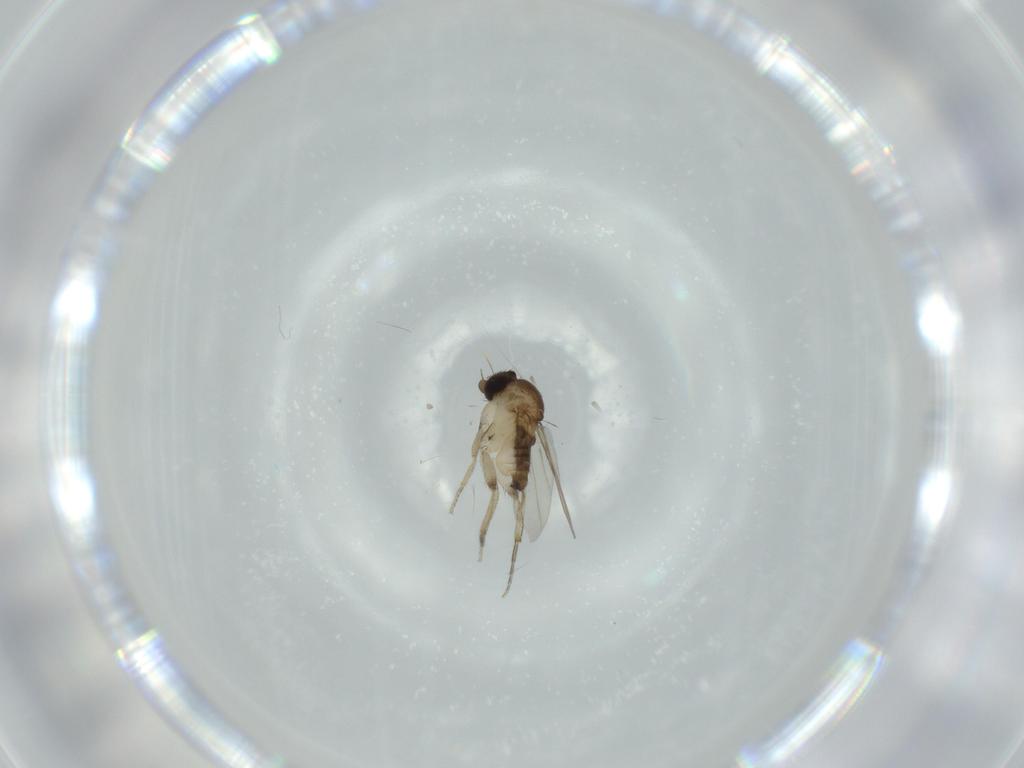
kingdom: Animalia
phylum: Arthropoda
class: Insecta
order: Diptera
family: Phoridae
